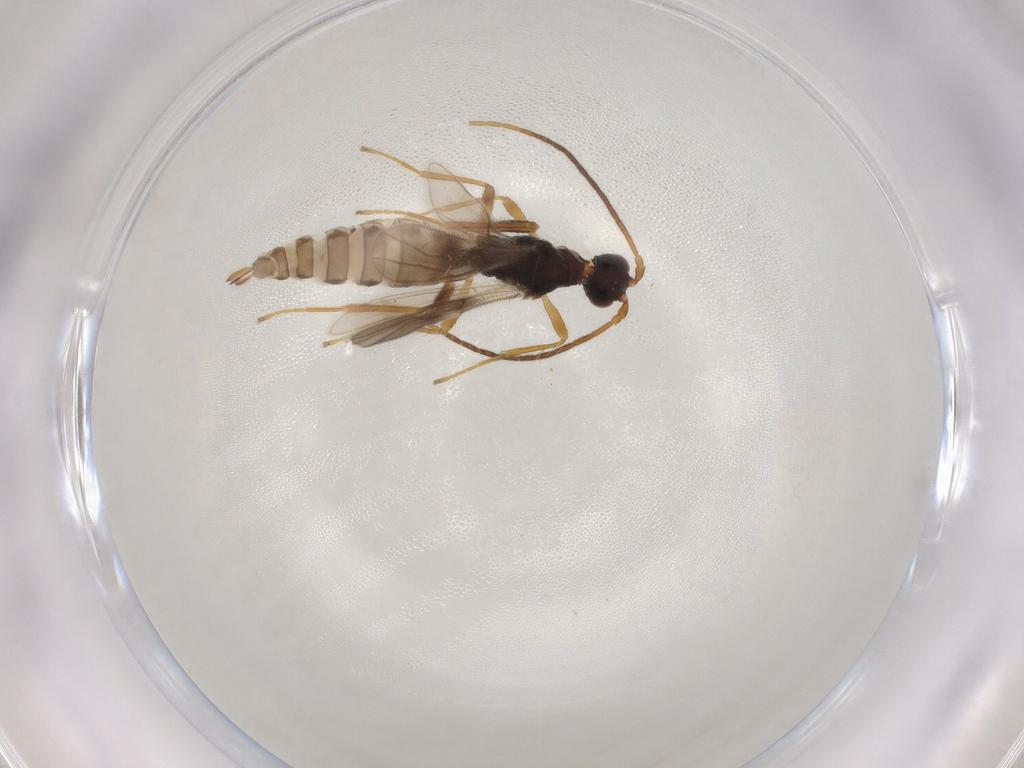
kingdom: Animalia
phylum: Arthropoda
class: Insecta
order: Hymenoptera
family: Braconidae
